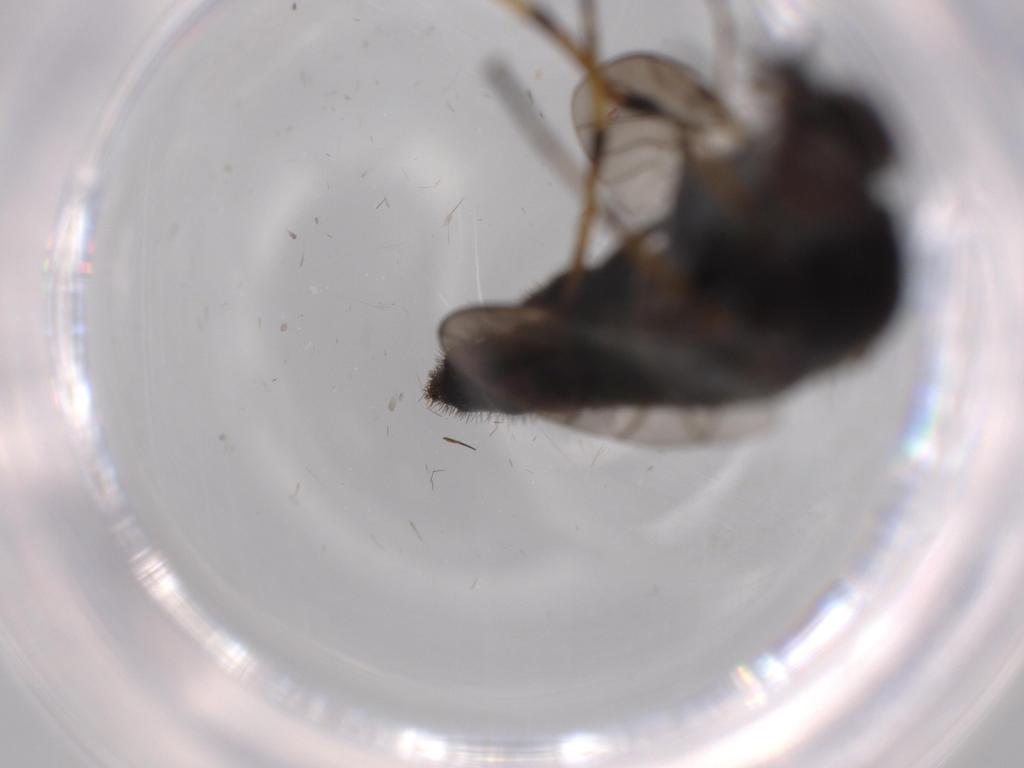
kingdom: Animalia
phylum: Arthropoda
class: Insecta
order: Diptera
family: Therevidae
